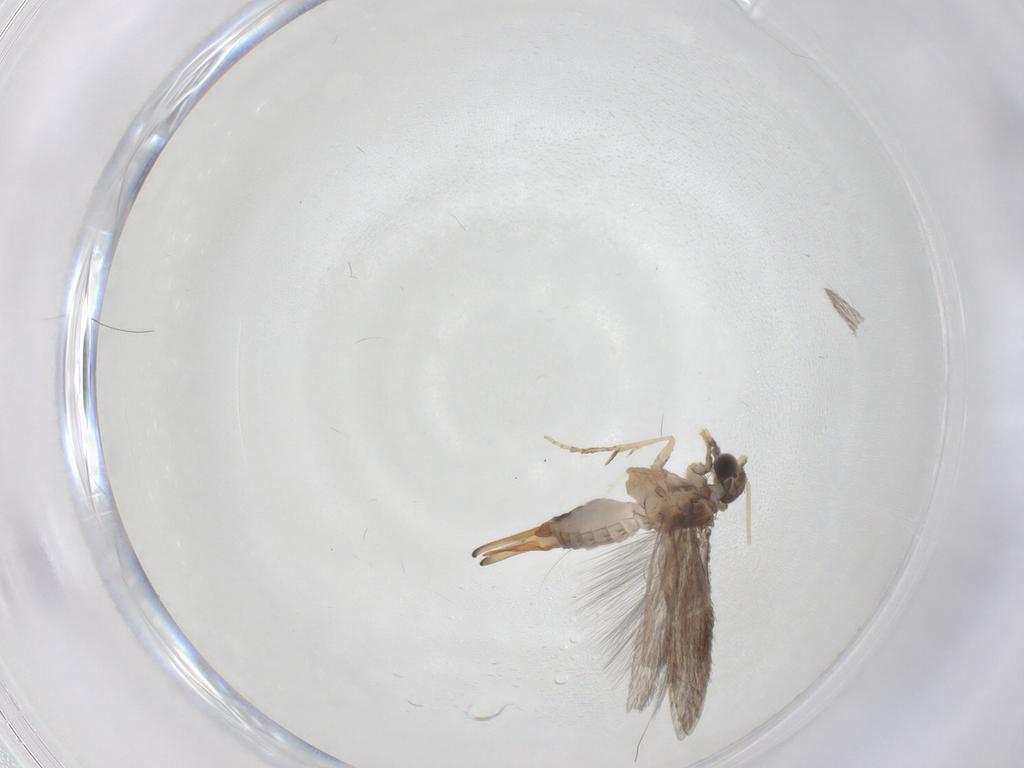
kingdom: Animalia
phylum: Arthropoda
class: Insecta
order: Trichoptera
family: Hydroptilidae
